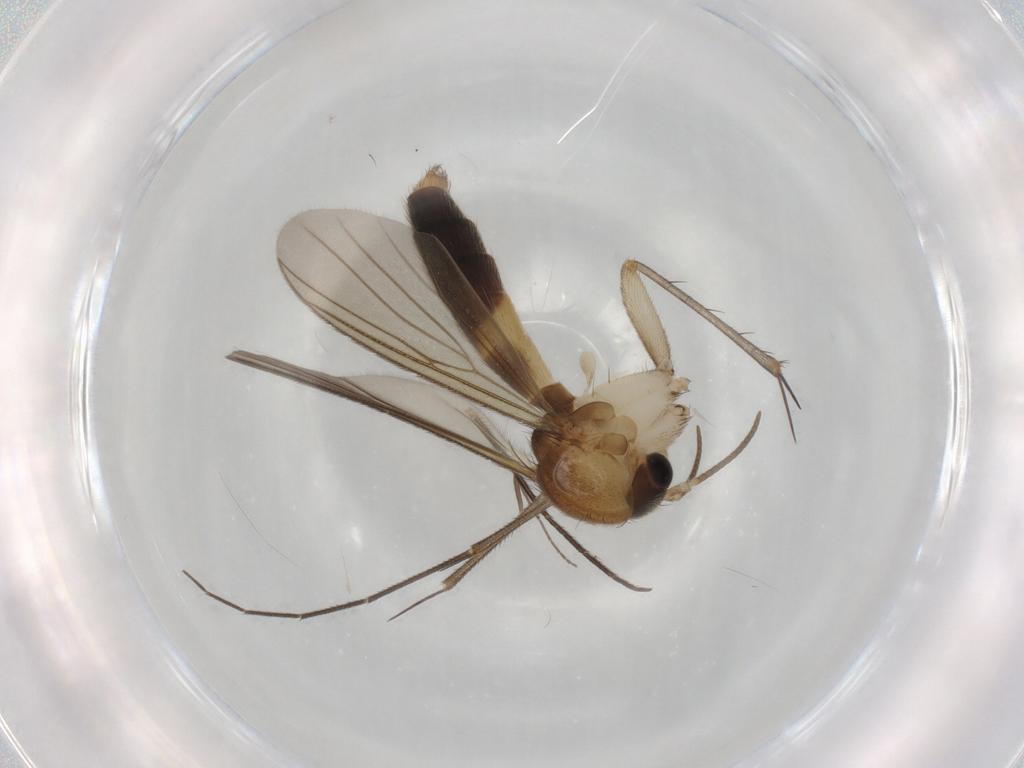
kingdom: Animalia
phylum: Arthropoda
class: Insecta
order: Diptera
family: Mycetophilidae
